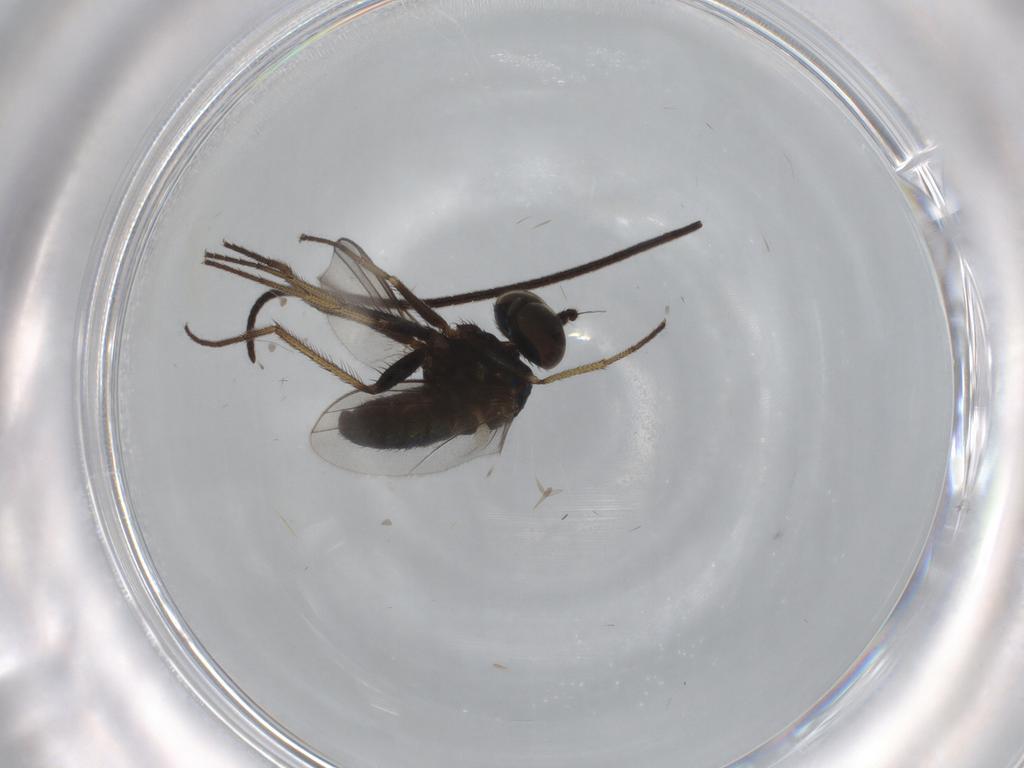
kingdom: Animalia
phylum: Arthropoda
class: Insecta
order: Diptera
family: Dolichopodidae
